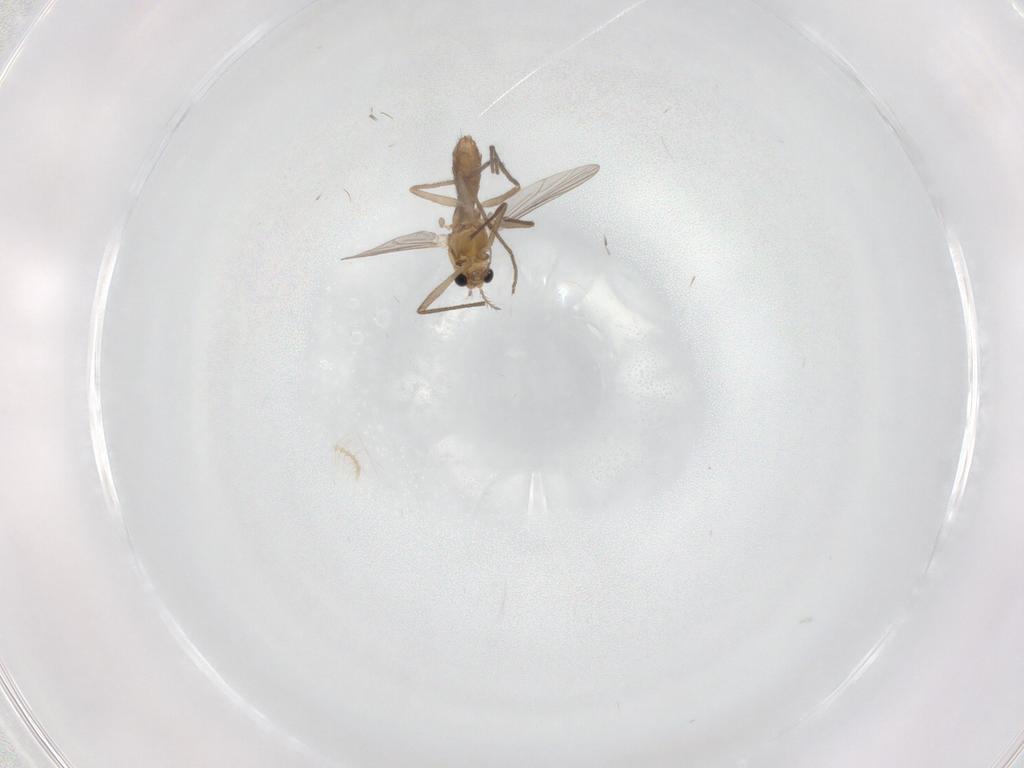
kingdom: Animalia
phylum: Arthropoda
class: Insecta
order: Diptera
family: Chironomidae
